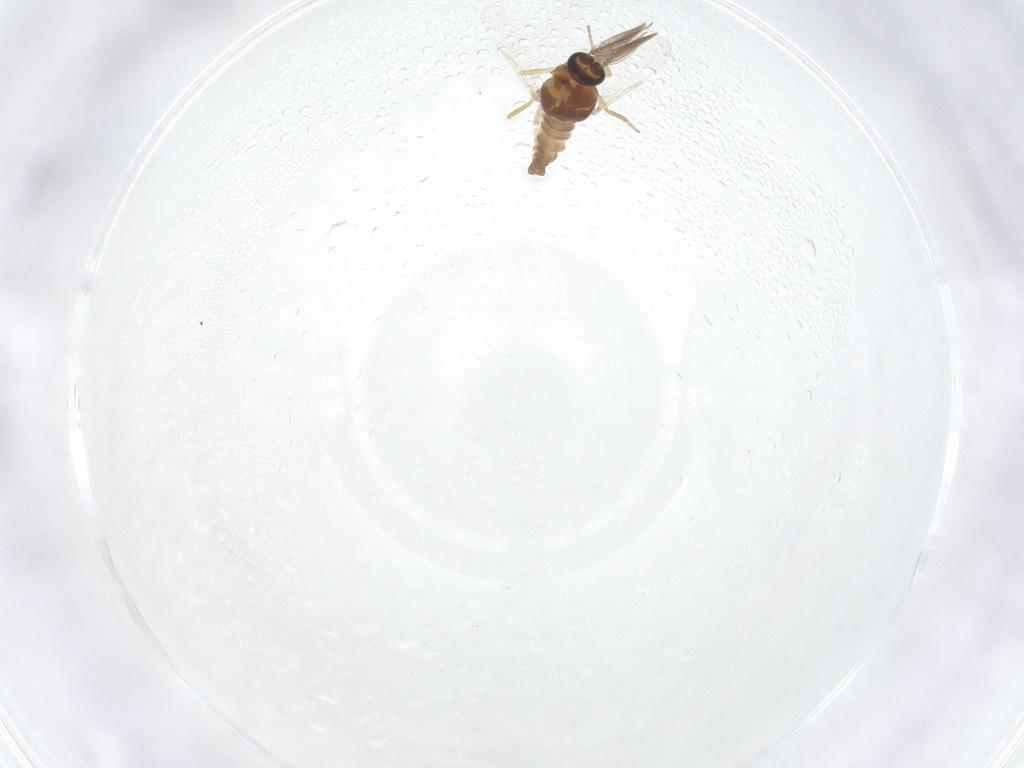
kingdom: Animalia
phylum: Arthropoda
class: Insecta
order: Diptera
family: Ceratopogonidae
